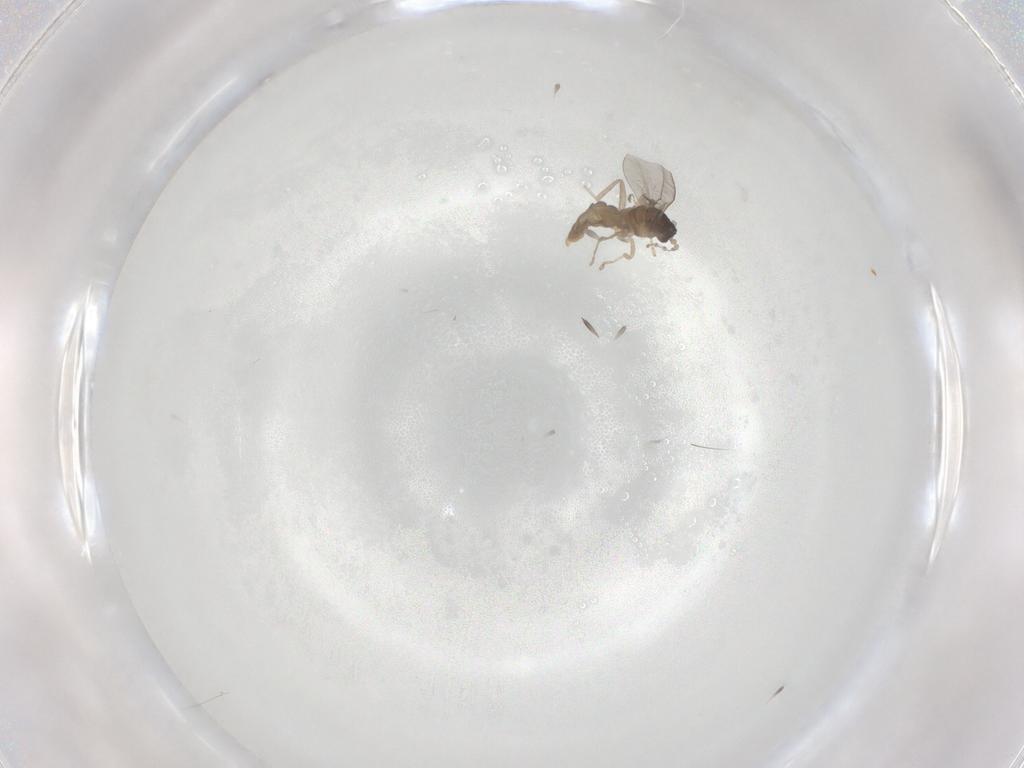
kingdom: Animalia
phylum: Arthropoda
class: Insecta
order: Diptera
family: Cecidomyiidae
